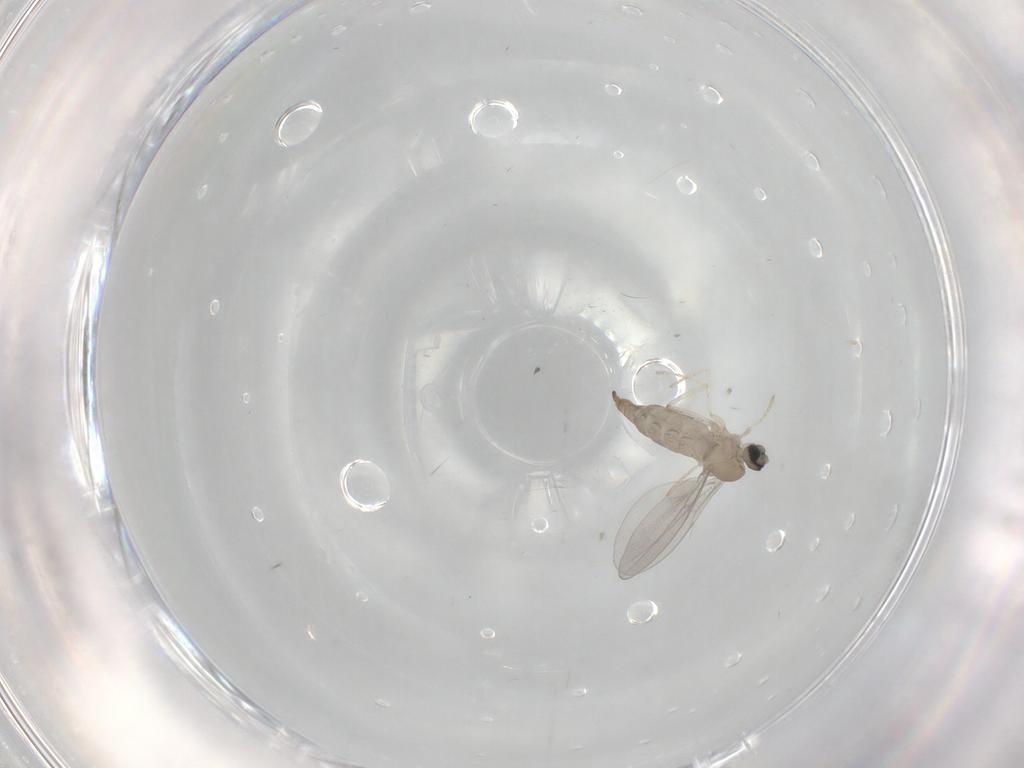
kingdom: Animalia
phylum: Arthropoda
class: Insecta
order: Diptera
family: Cecidomyiidae
